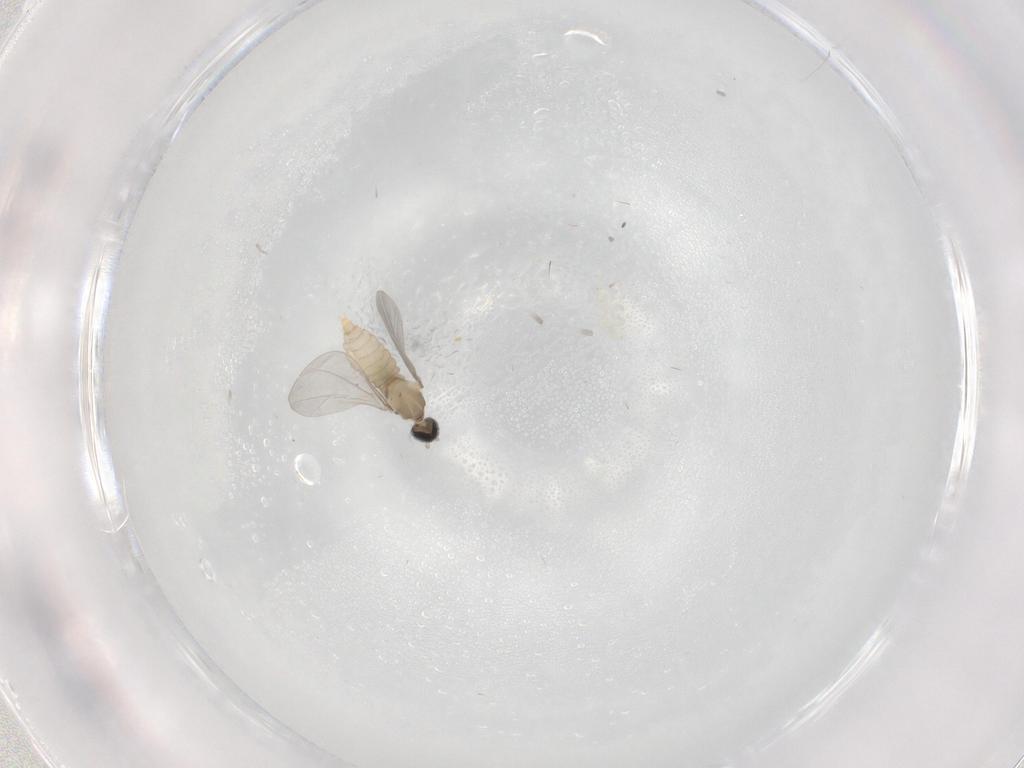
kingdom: Animalia
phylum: Arthropoda
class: Insecta
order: Diptera
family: Cecidomyiidae
